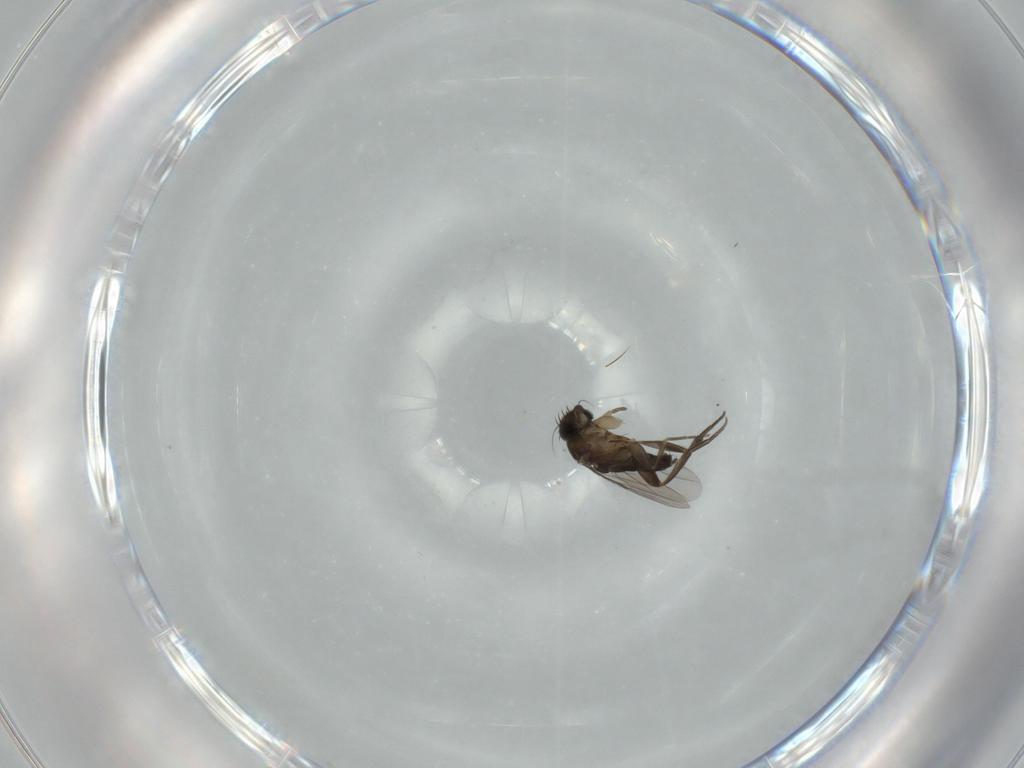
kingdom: Animalia
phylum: Arthropoda
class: Insecta
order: Diptera
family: Phoridae
